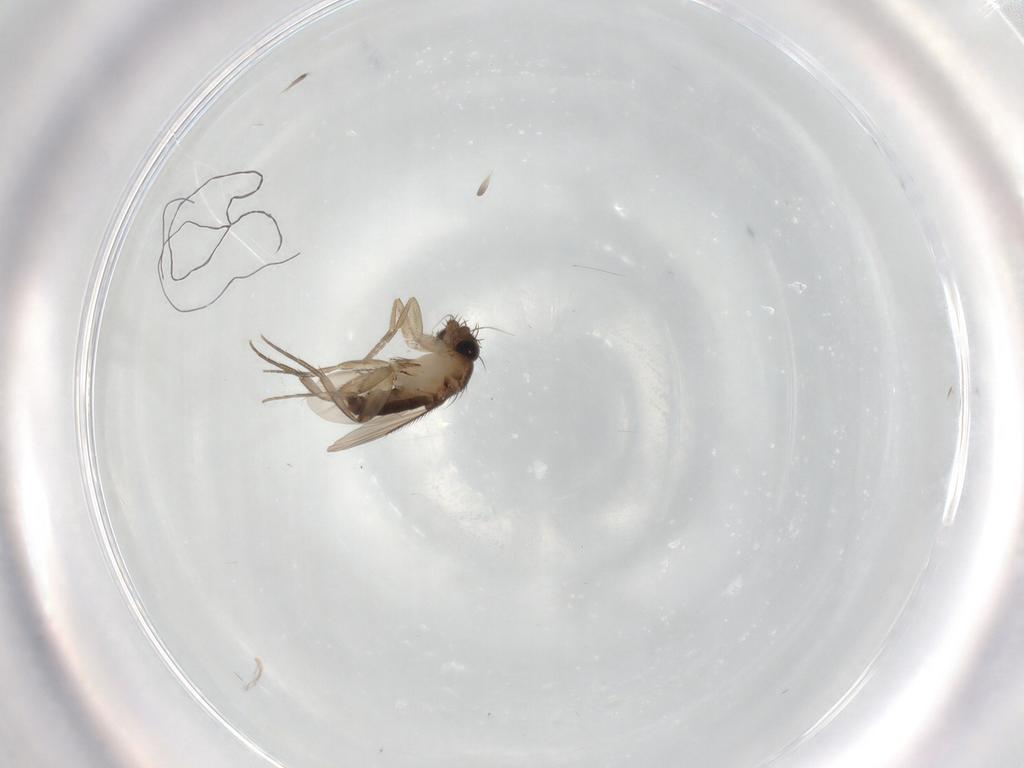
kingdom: Animalia
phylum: Arthropoda
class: Insecta
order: Diptera
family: Phoridae
